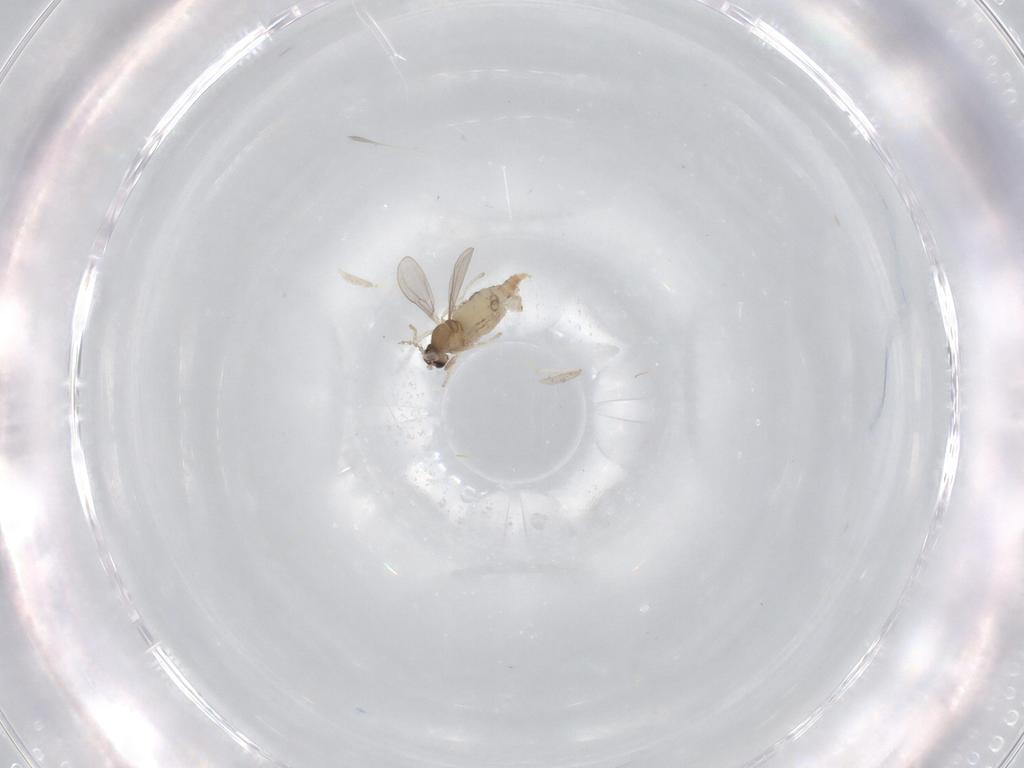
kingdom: Animalia
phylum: Arthropoda
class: Insecta
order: Diptera
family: Cecidomyiidae
